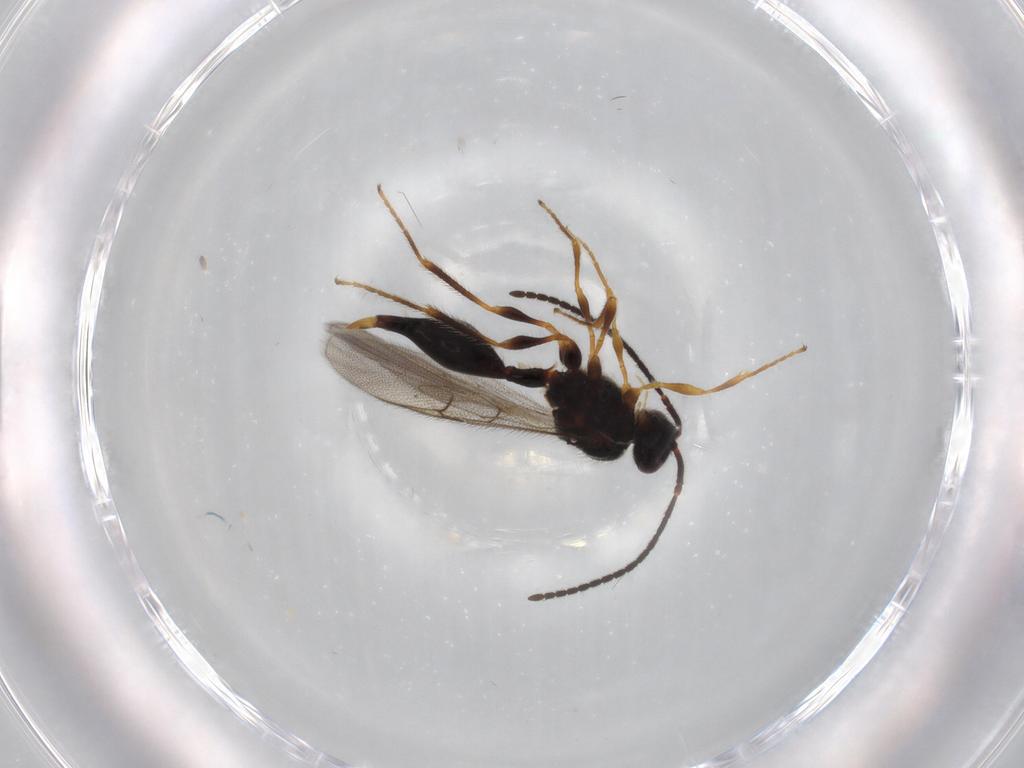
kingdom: Animalia
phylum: Arthropoda
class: Insecta
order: Hymenoptera
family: Diapriidae
